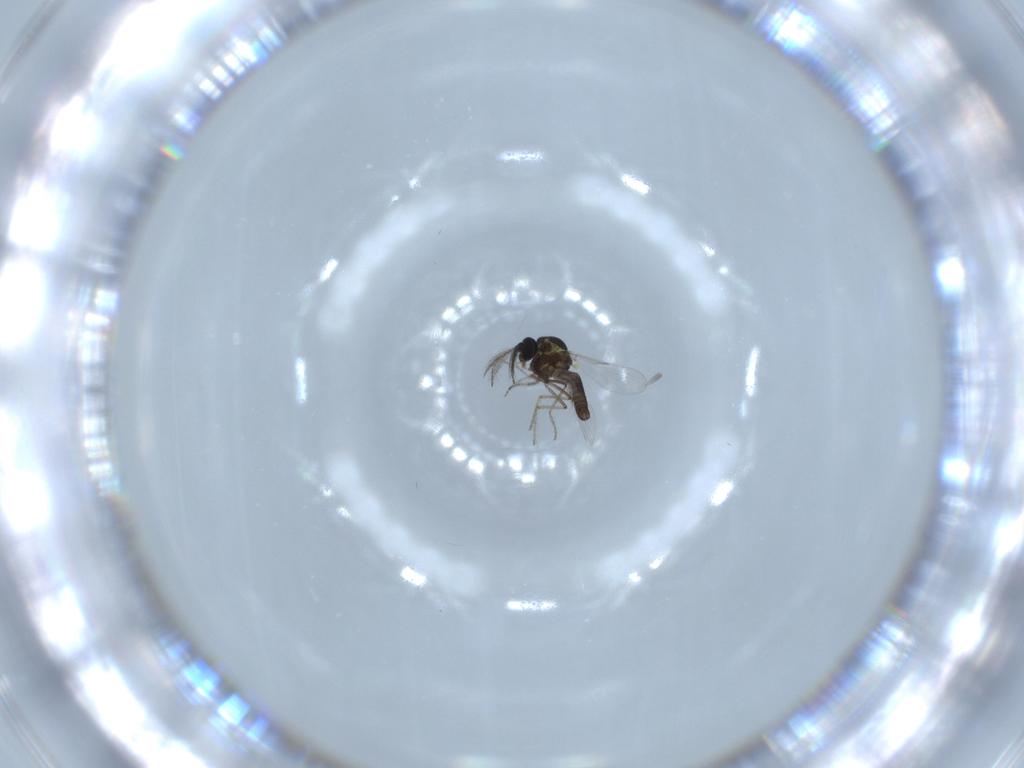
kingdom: Animalia
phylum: Arthropoda
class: Insecta
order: Diptera
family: Ceratopogonidae
